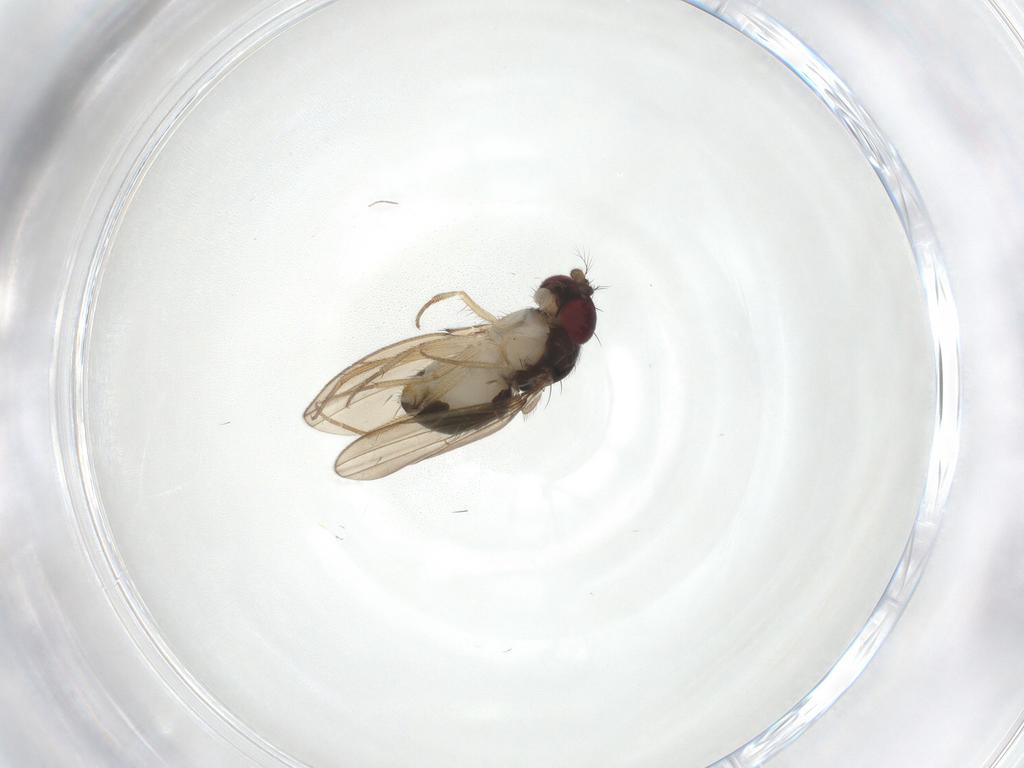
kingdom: Animalia
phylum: Arthropoda
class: Insecta
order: Diptera
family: Drosophilidae
